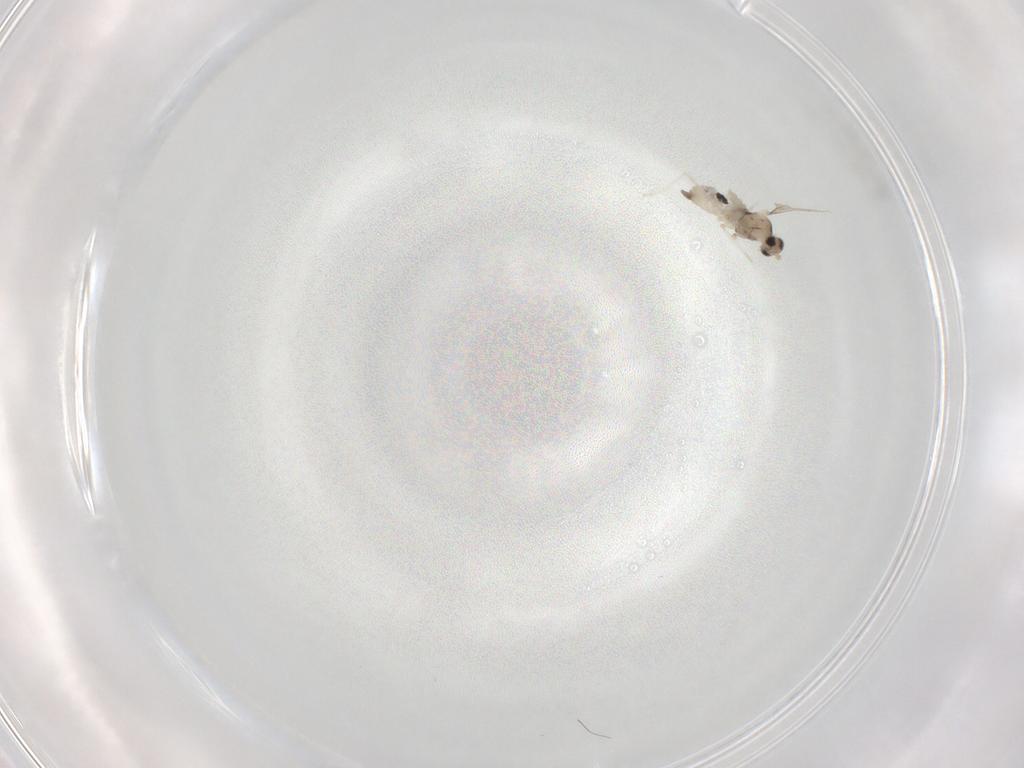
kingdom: Animalia
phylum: Arthropoda
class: Insecta
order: Diptera
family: Cecidomyiidae
